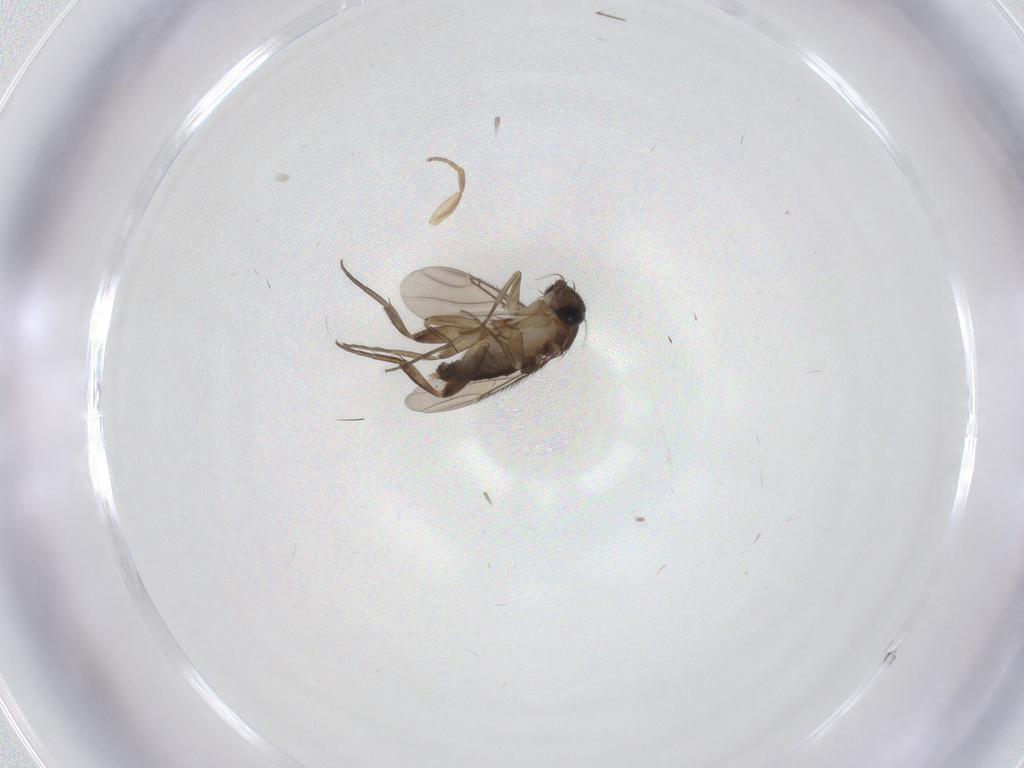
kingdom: Animalia
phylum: Arthropoda
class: Insecta
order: Diptera
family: Phoridae
